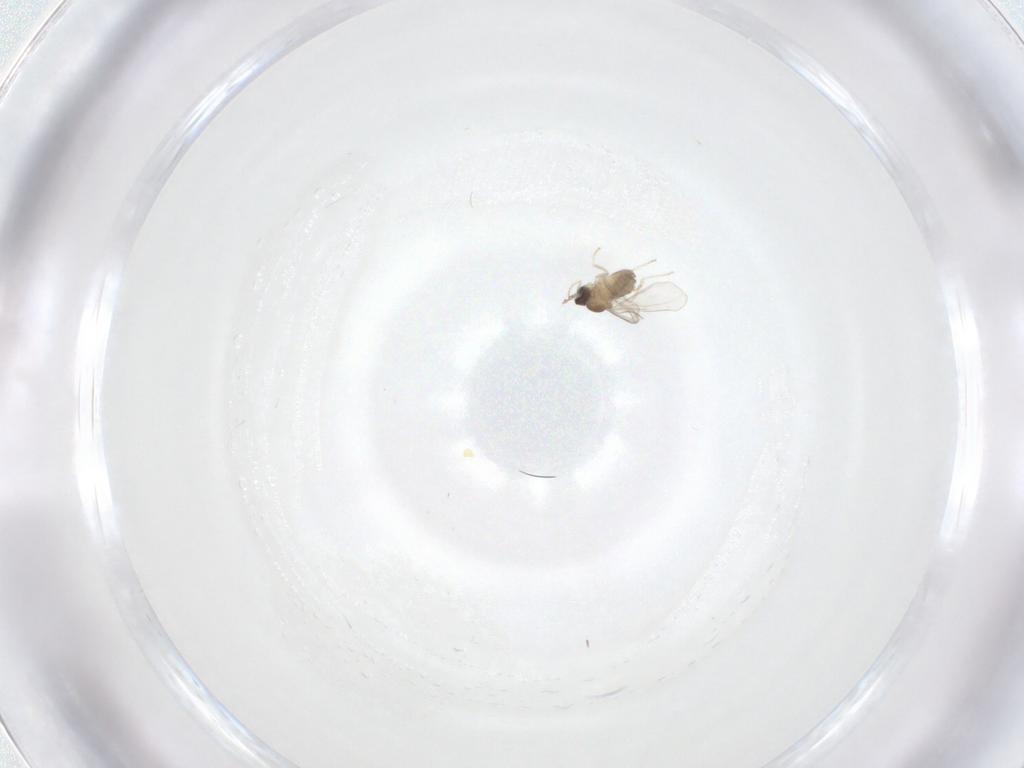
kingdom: Animalia
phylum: Arthropoda
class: Insecta
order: Diptera
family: Cecidomyiidae
